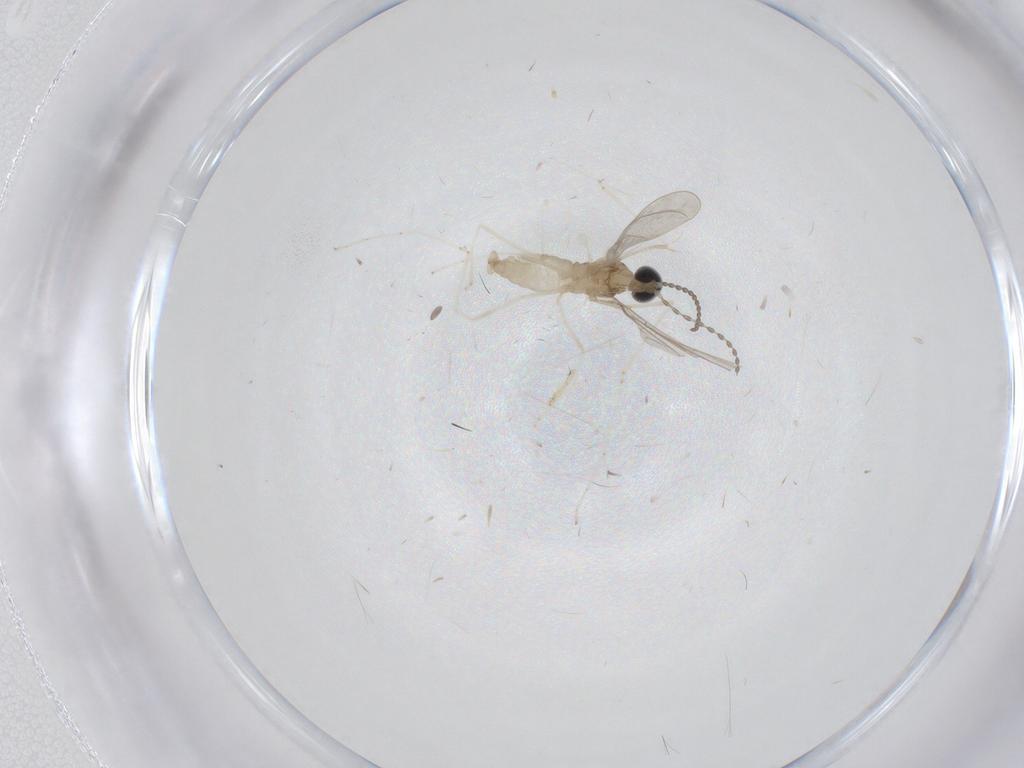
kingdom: Animalia
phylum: Arthropoda
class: Insecta
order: Diptera
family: Cecidomyiidae
